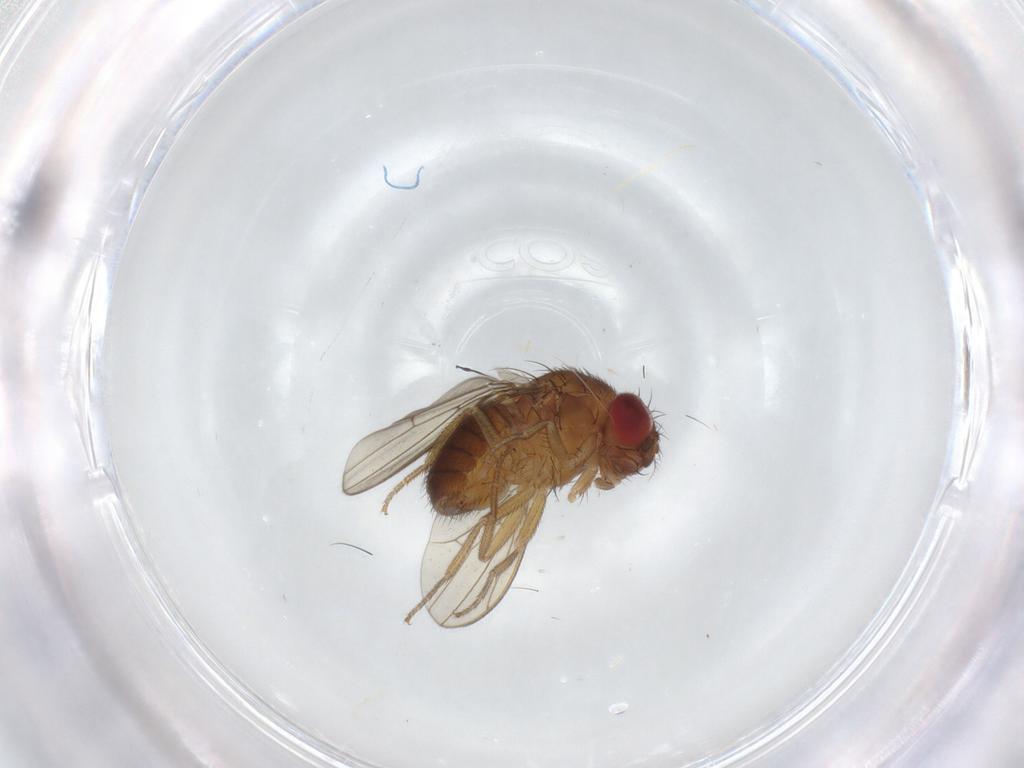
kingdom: Animalia
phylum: Arthropoda
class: Insecta
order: Diptera
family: Drosophilidae
